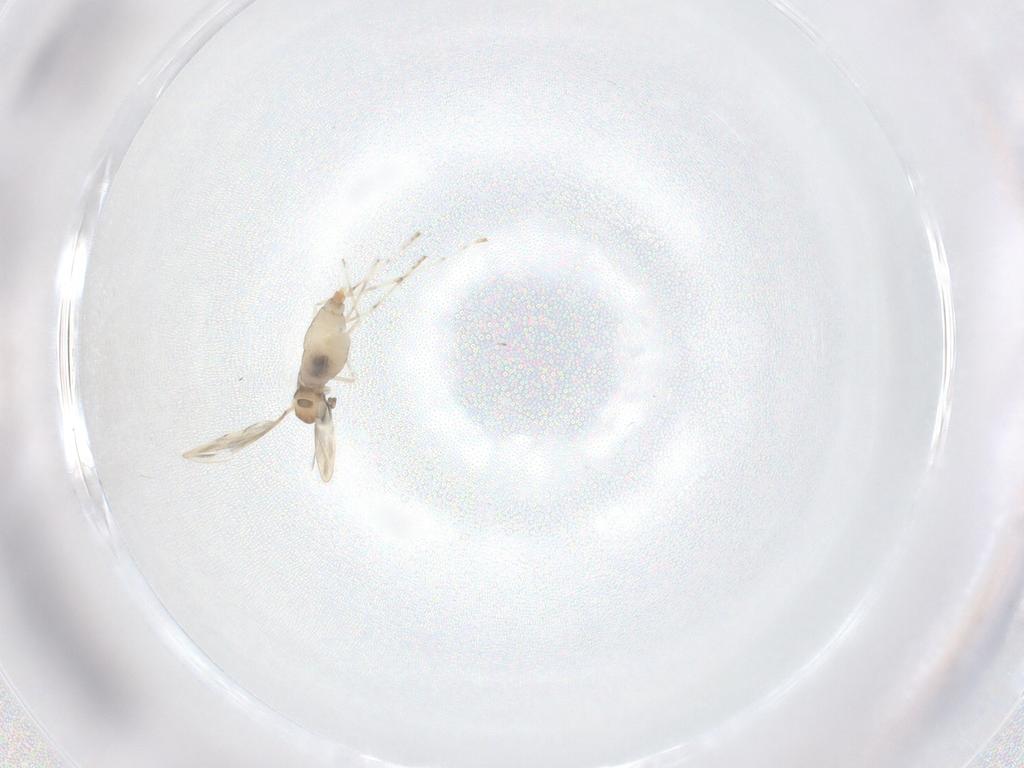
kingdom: Animalia
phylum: Arthropoda
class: Insecta
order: Diptera
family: Cecidomyiidae
